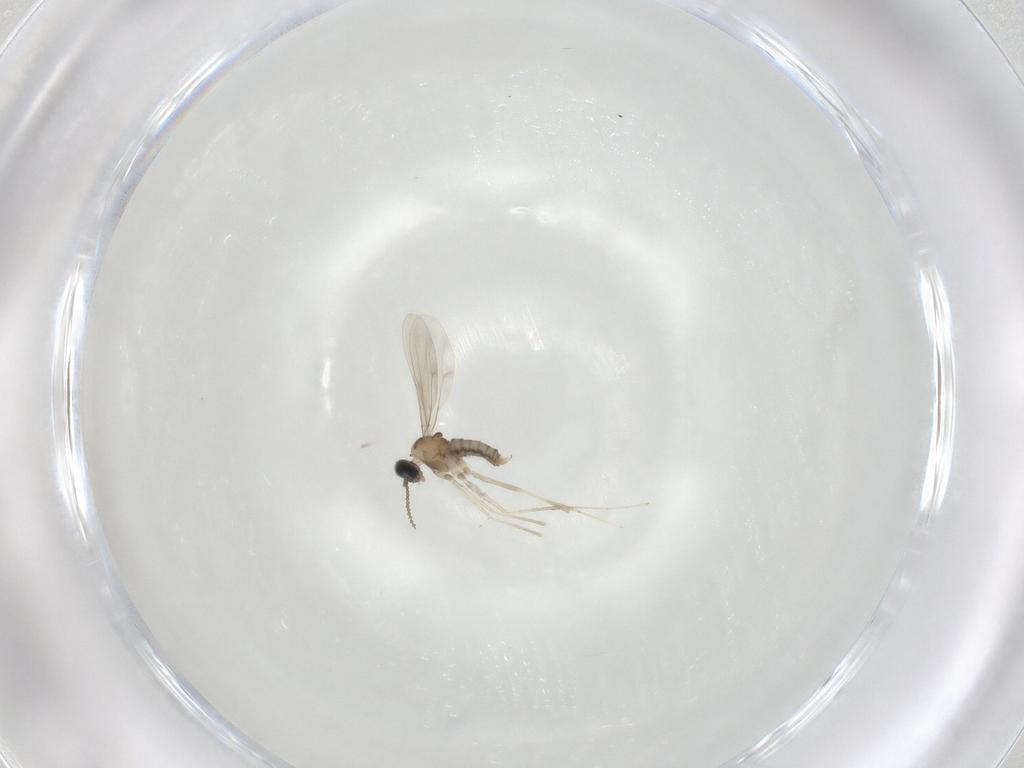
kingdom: Animalia
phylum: Arthropoda
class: Insecta
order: Diptera
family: Cecidomyiidae
